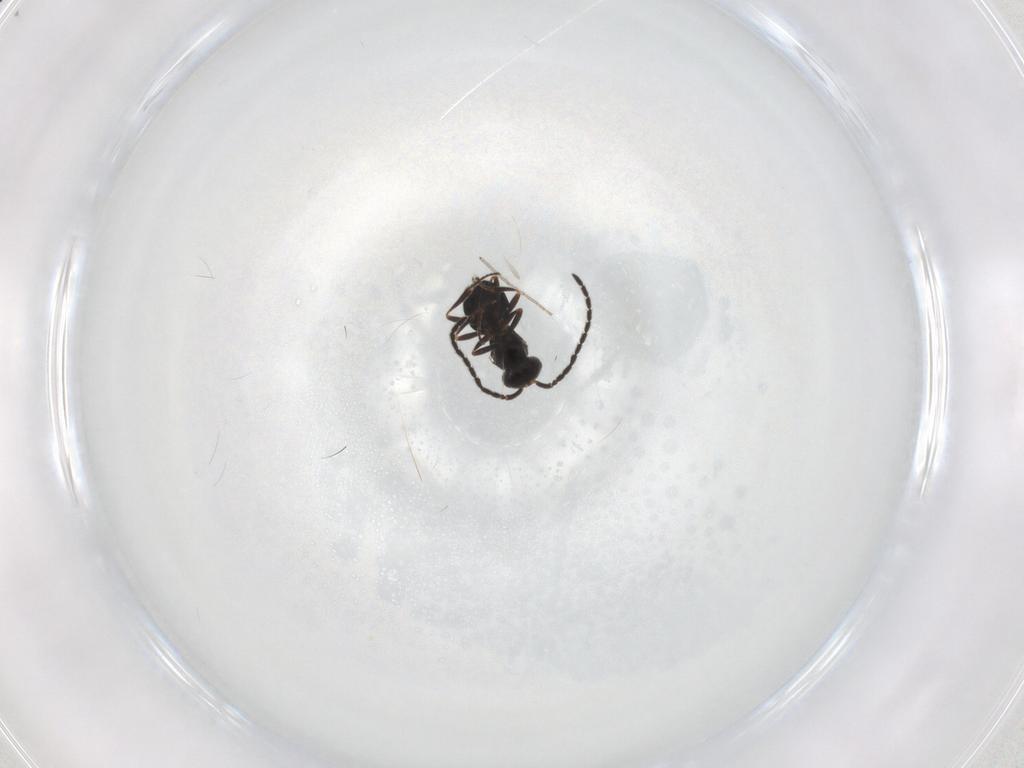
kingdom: Animalia
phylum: Arthropoda
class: Insecta
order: Hymenoptera
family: Scelionidae
